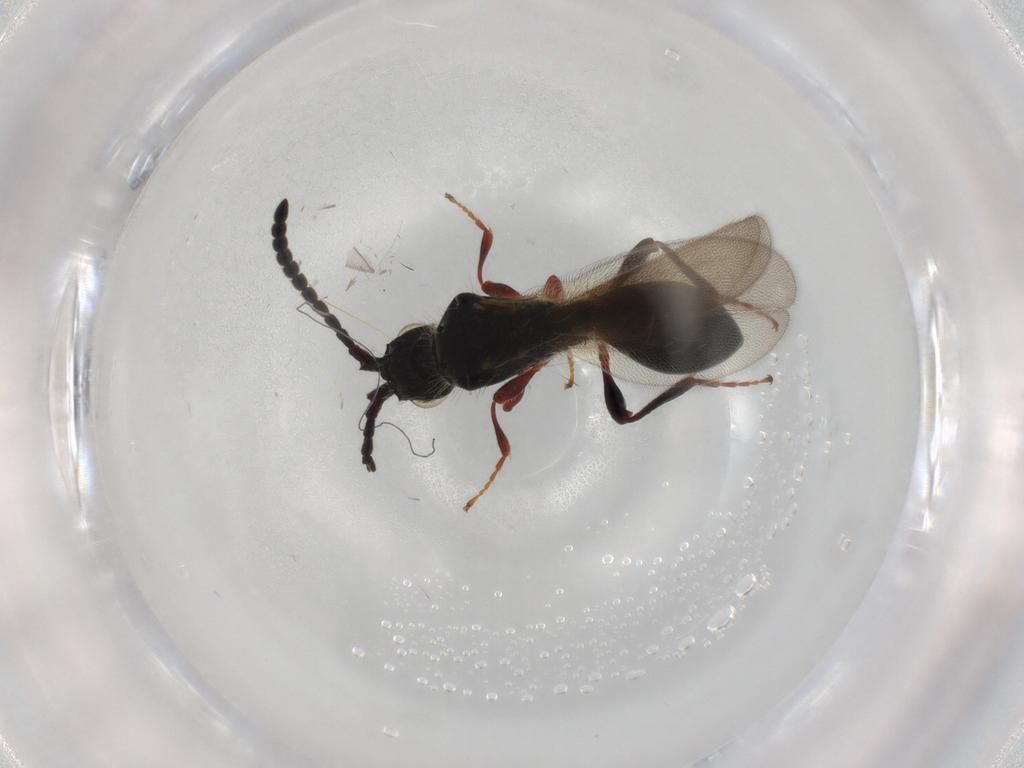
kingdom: Animalia
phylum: Arthropoda
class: Insecta
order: Hymenoptera
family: Diapriidae
